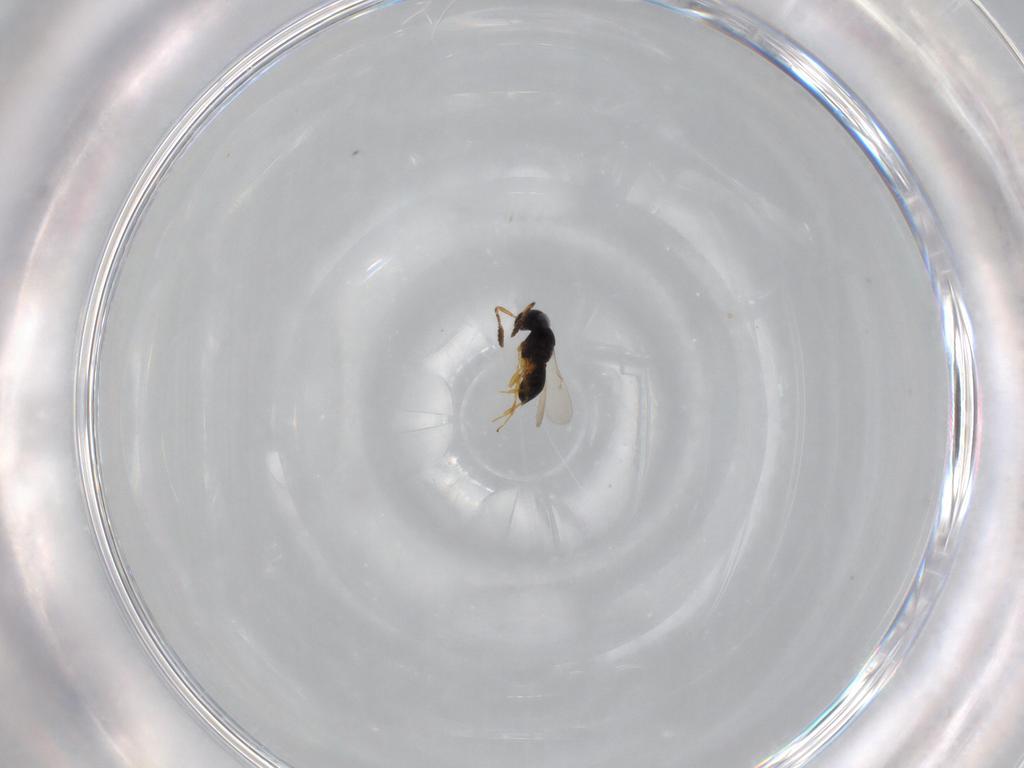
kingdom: Animalia
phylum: Arthropoda
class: Insecta
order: Hymenoptera
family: Scelionidae
